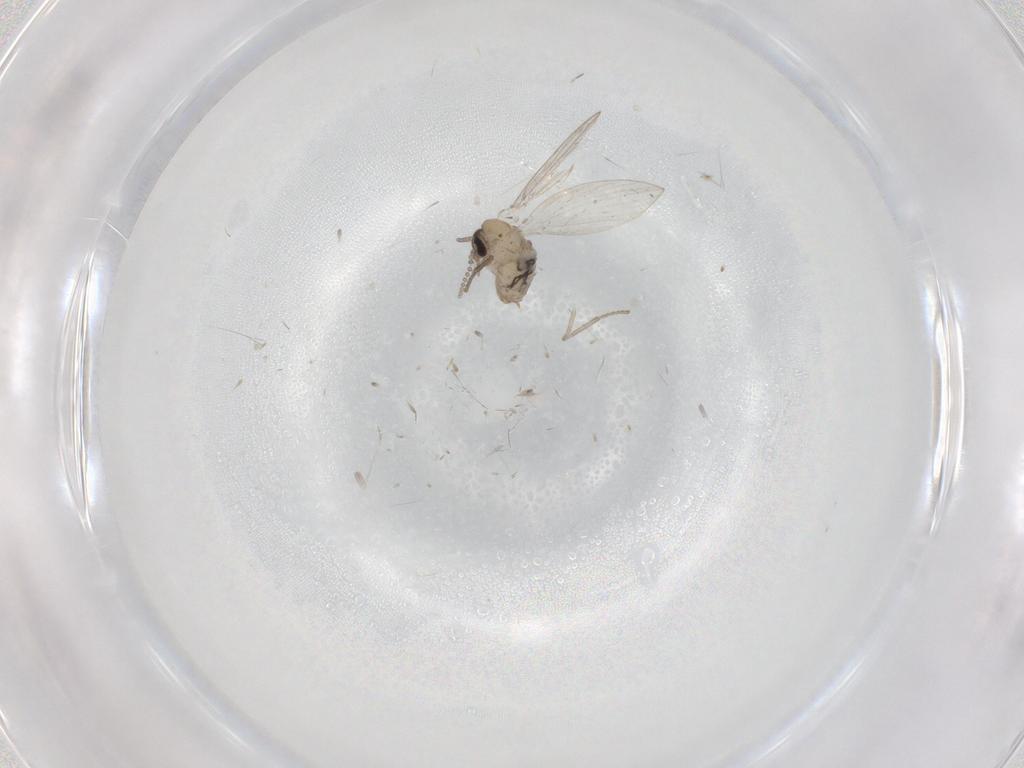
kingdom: Animalia
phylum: Arthropoda
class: Insecta
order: Diptera
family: Psychodidae
